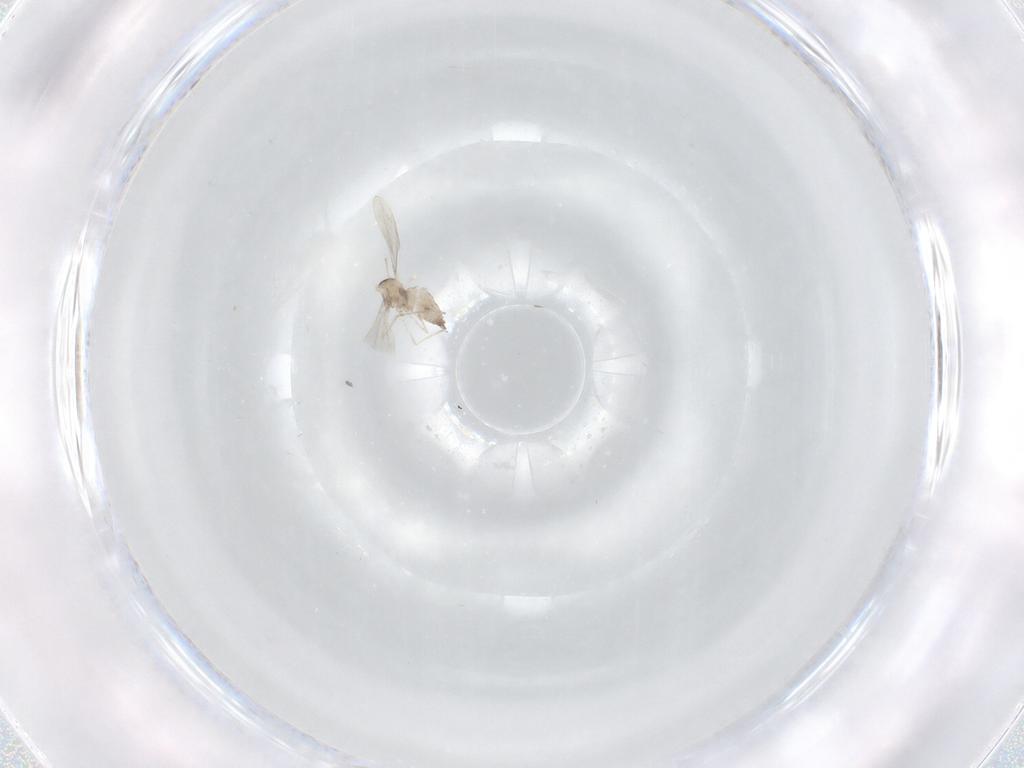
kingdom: Animalia
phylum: Arthropoda
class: Insecta
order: Diptera
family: Cecidomyiidae
